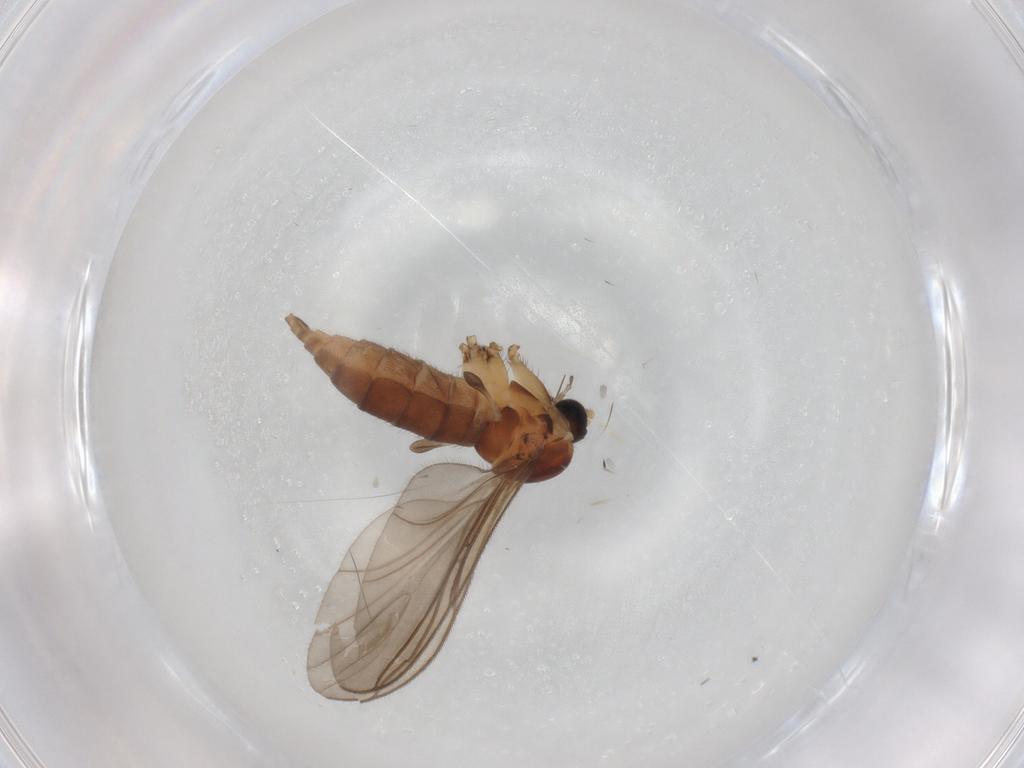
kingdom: Animalia
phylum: Arthropoda
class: Insecta
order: Diptera
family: Sciaridae
